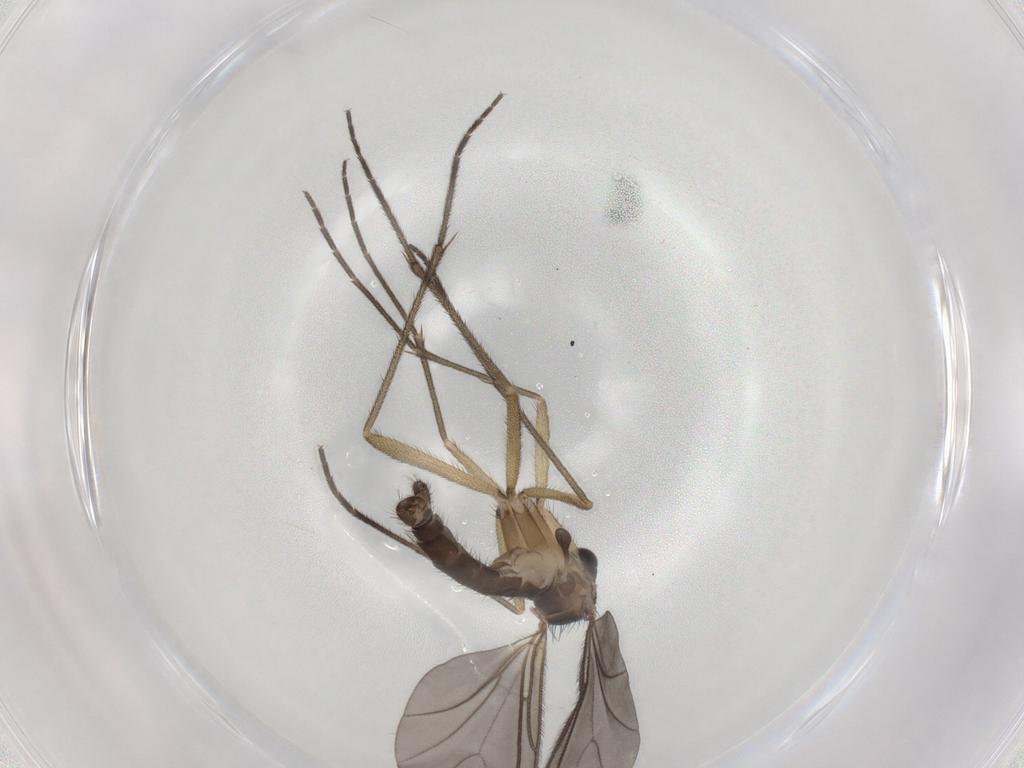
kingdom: Animalia
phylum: Arthropoda
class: Insecta
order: Diptera
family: Sciaridae
